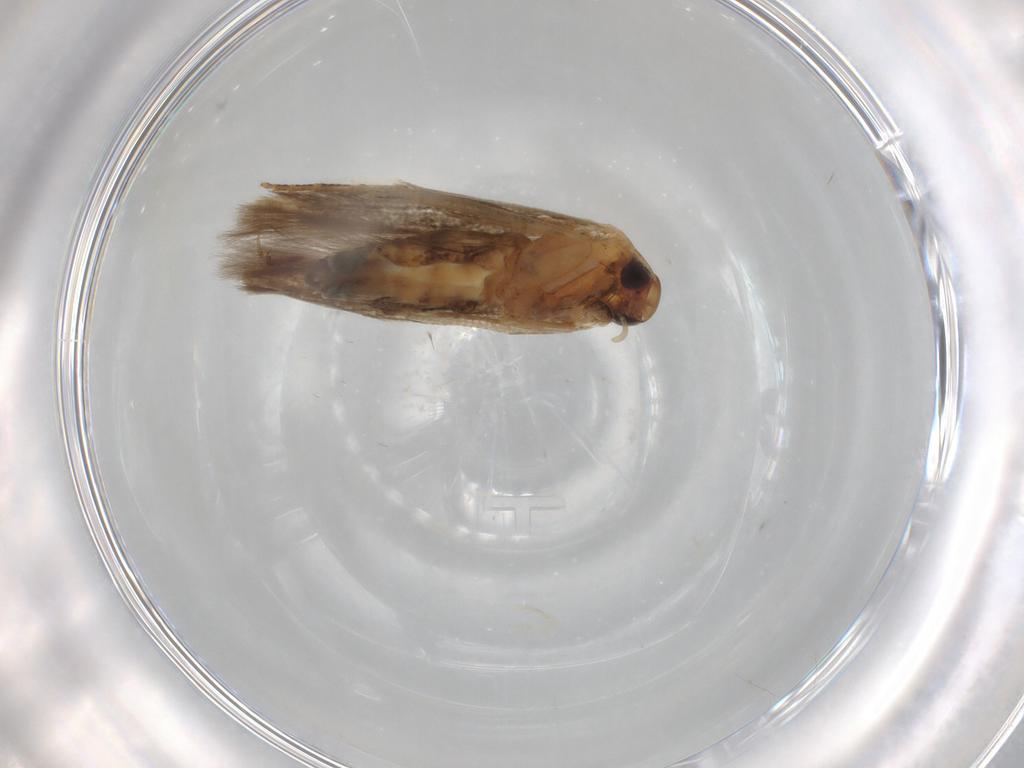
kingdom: Animalia
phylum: Arthropoda
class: Insecta
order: Lepidoptera
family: Cosmopterigidae
